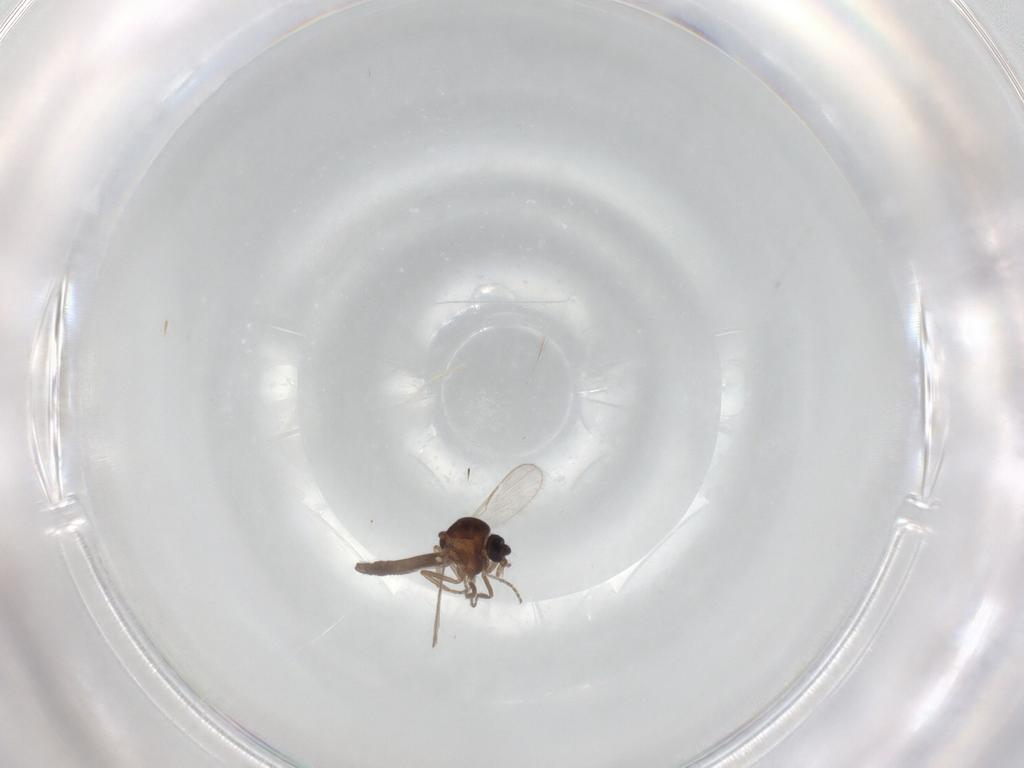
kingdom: Animalia
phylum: Arthropoda
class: Insecta
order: Diptera
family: Ceratopogonidae
